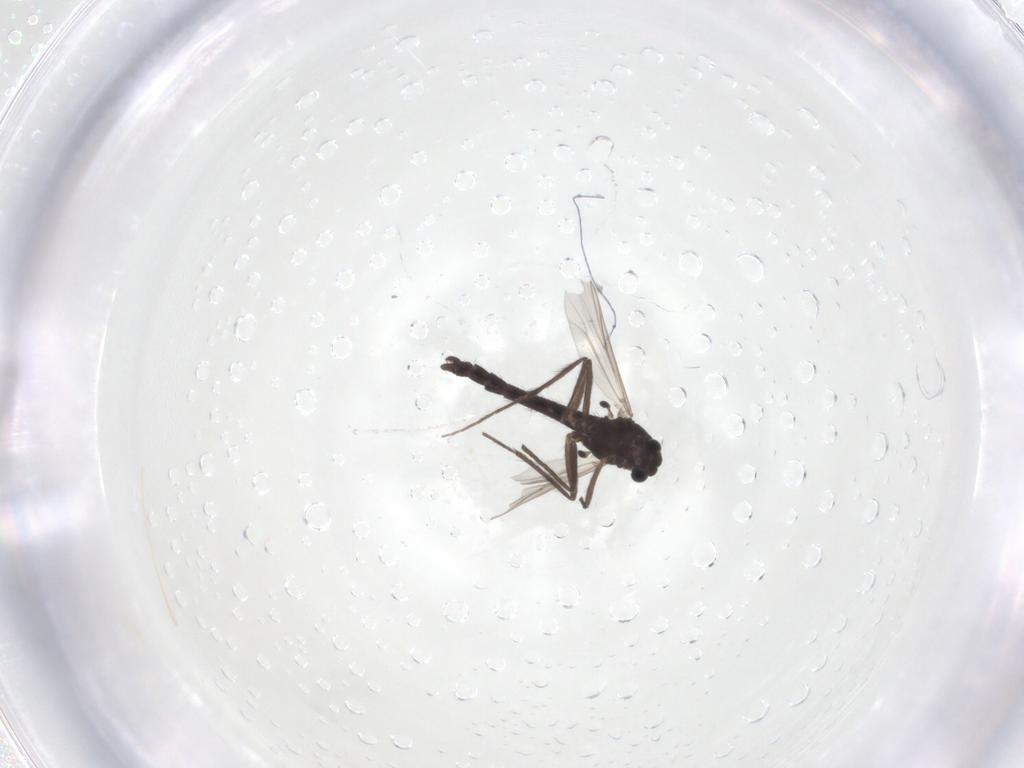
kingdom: Animalia
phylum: Arthropoda
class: Insecta
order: Diptera
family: Chironomidae
